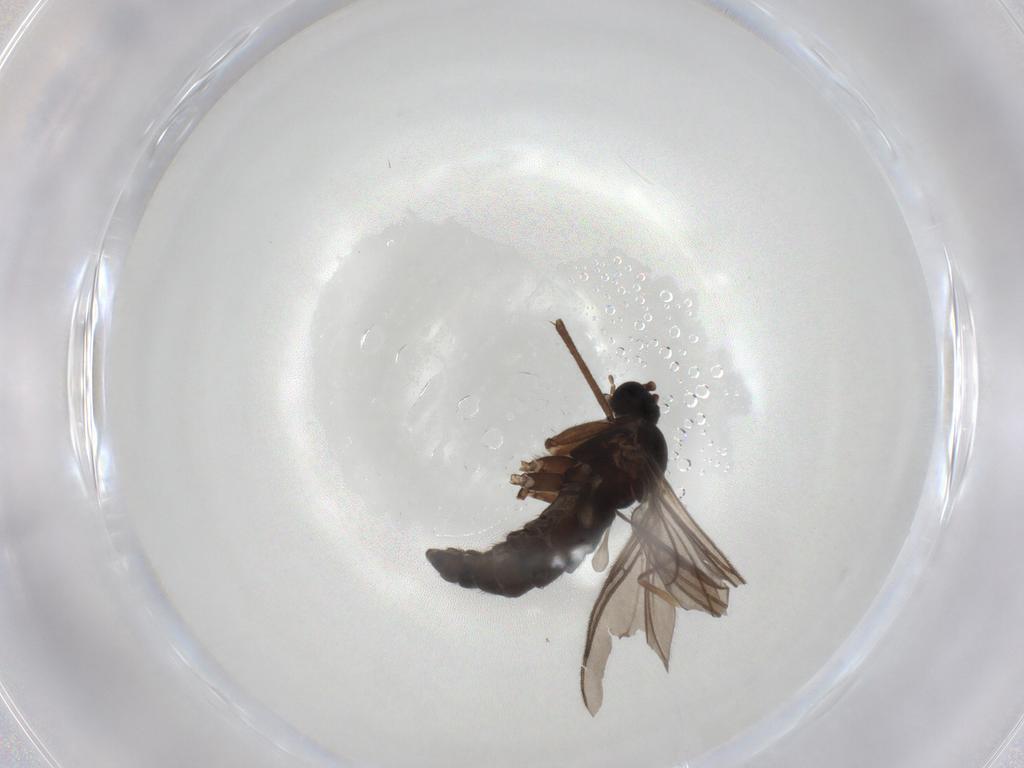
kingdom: Animalia
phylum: Arthropoda
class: Insecta
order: Diptera
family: Sciaridae
